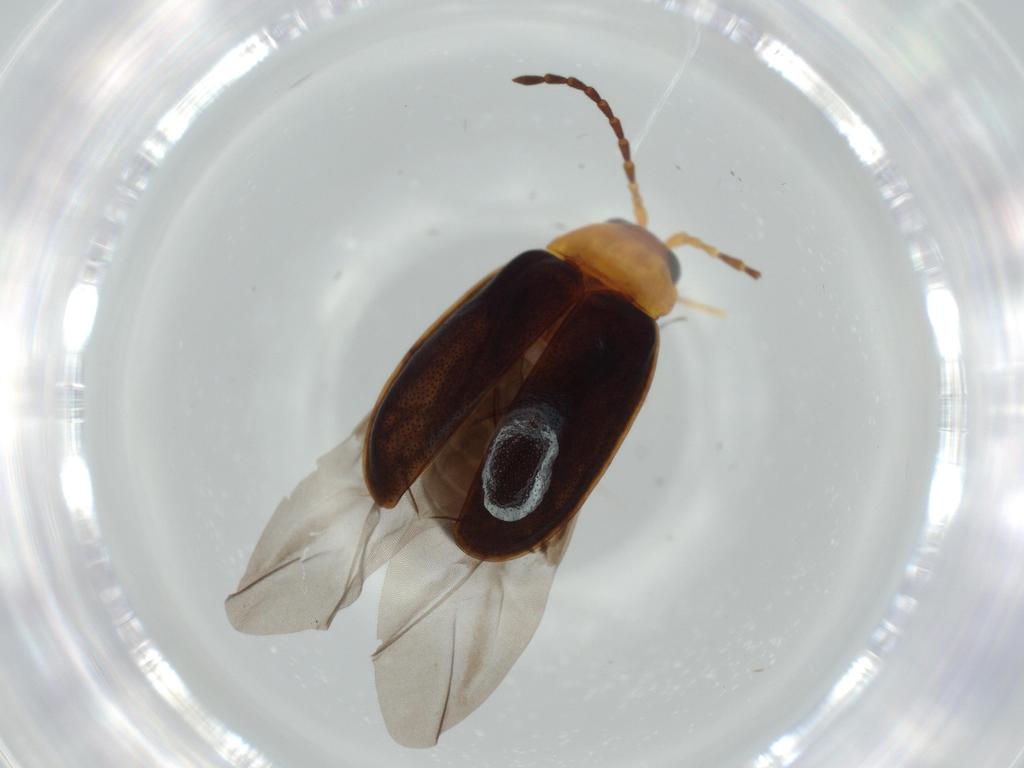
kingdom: Animalia
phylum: Arthropoda
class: Insecta
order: Coleoptera
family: Chrysomelidae
